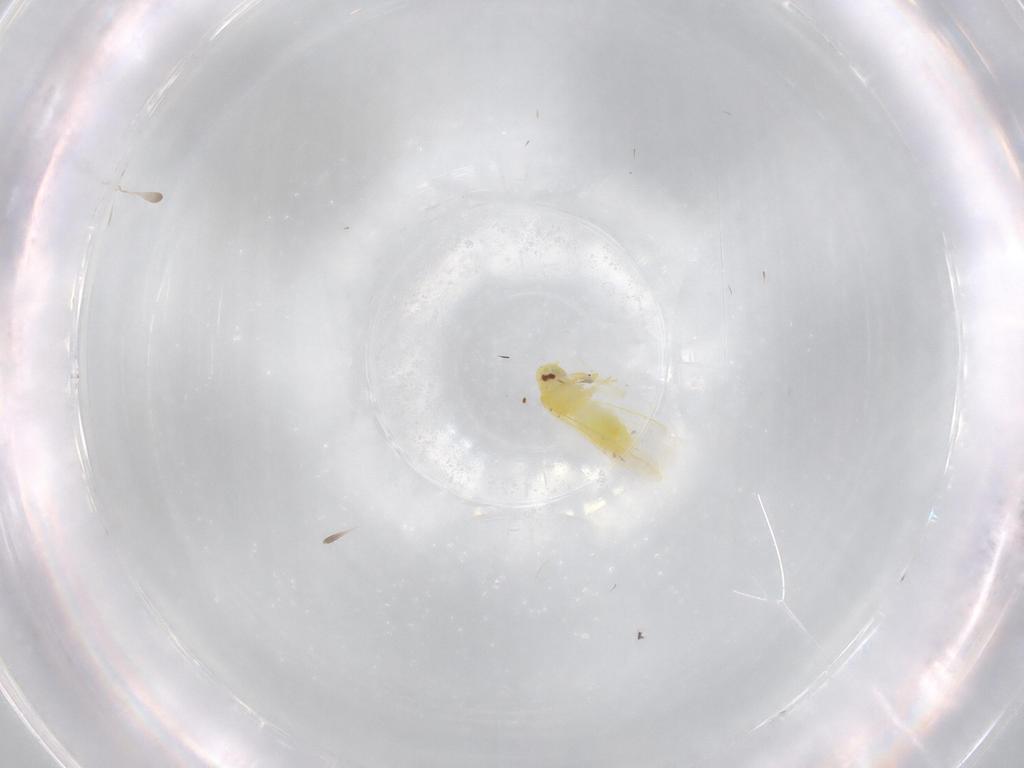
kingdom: Animalia
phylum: Arthropoda
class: Insecta
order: Hemiptera
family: Aleyrodidae
